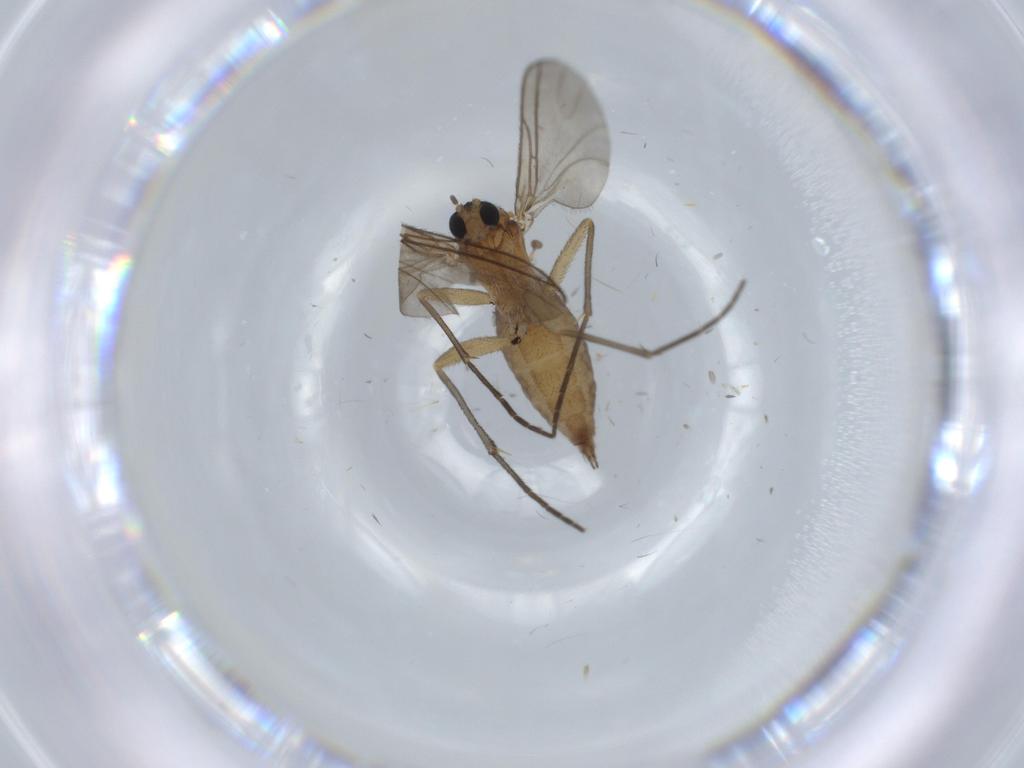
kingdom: Animalia
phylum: Arthropoda
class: Insecta
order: Diptera
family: Sciaridae
